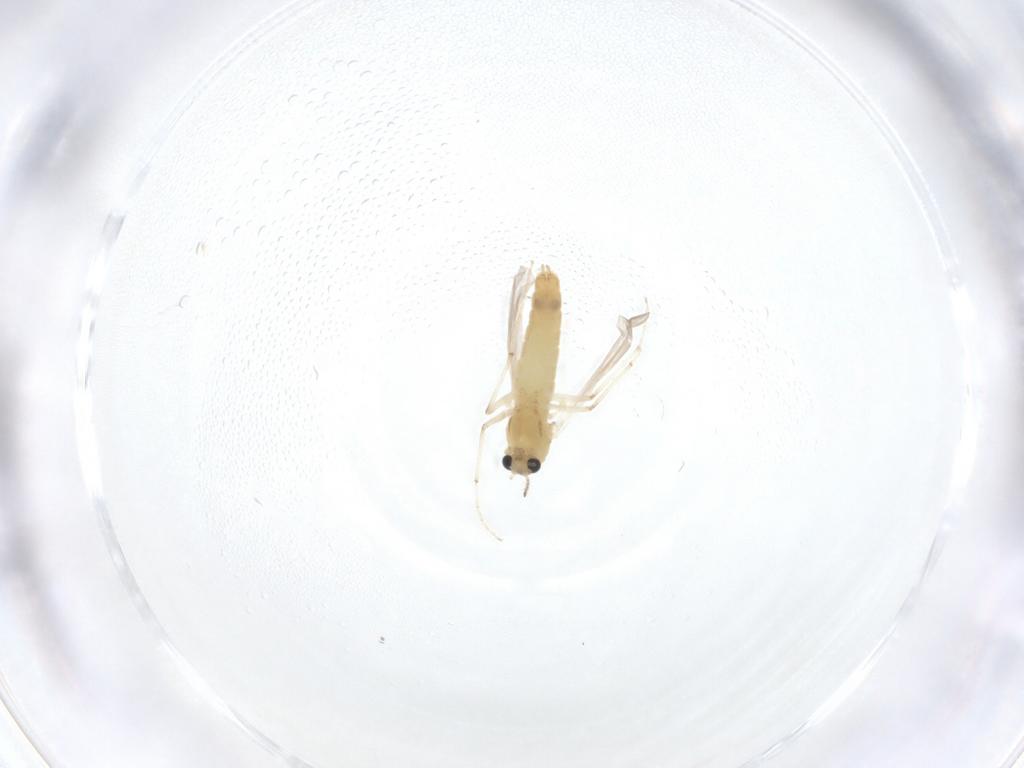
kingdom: Animalia
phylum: Arthropoda
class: Insecta
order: Diptera
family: Chironomidae
